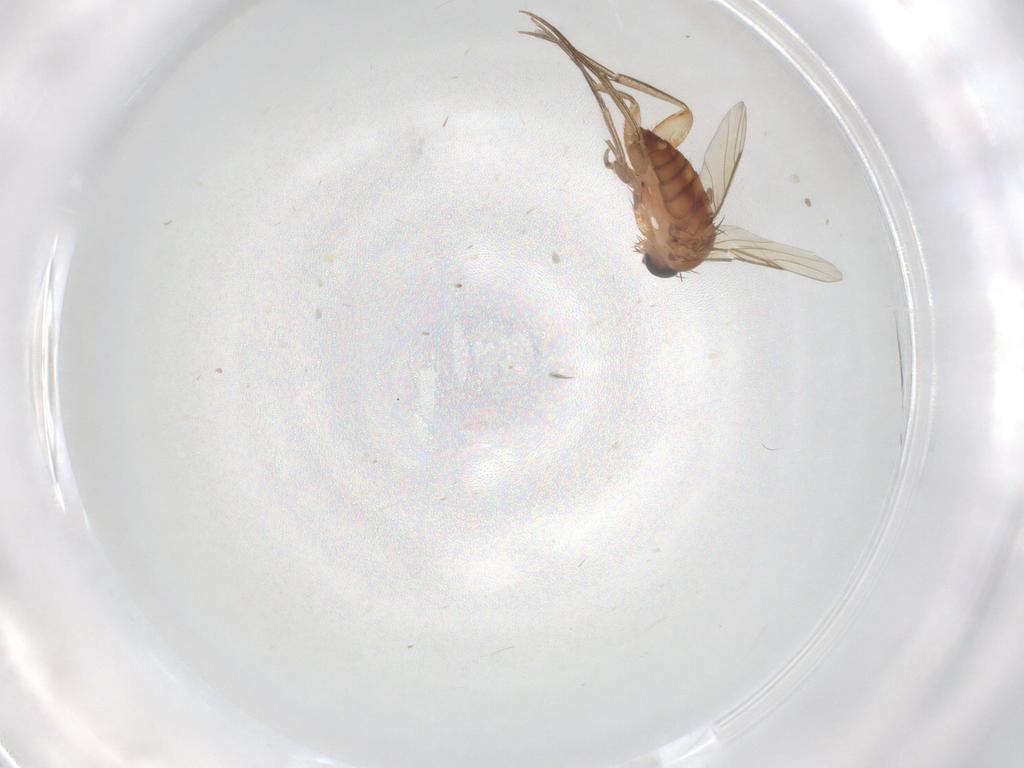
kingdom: Animalia
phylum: Arthropoda
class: Insecta
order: Diptera
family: Phoridae
